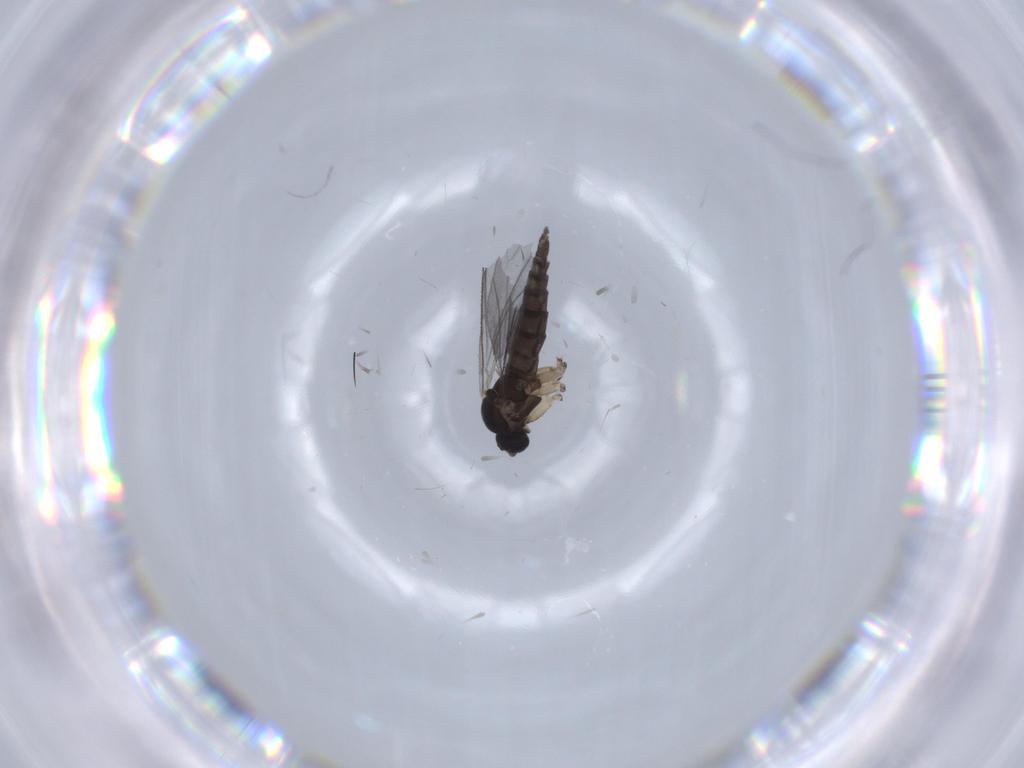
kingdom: Animalia
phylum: Arthropoda
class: Insecta
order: Diptera
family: Sciaridae
